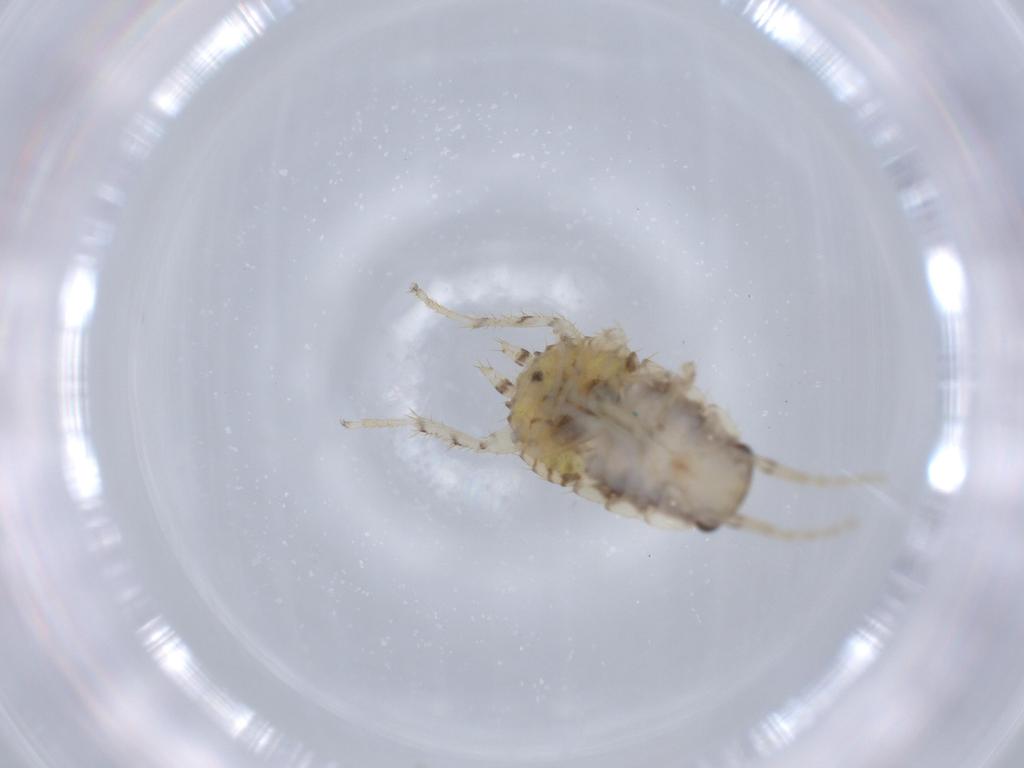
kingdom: Animalia
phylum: Arthropoda
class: Insecta
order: Blattodea
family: Ectobiidae
